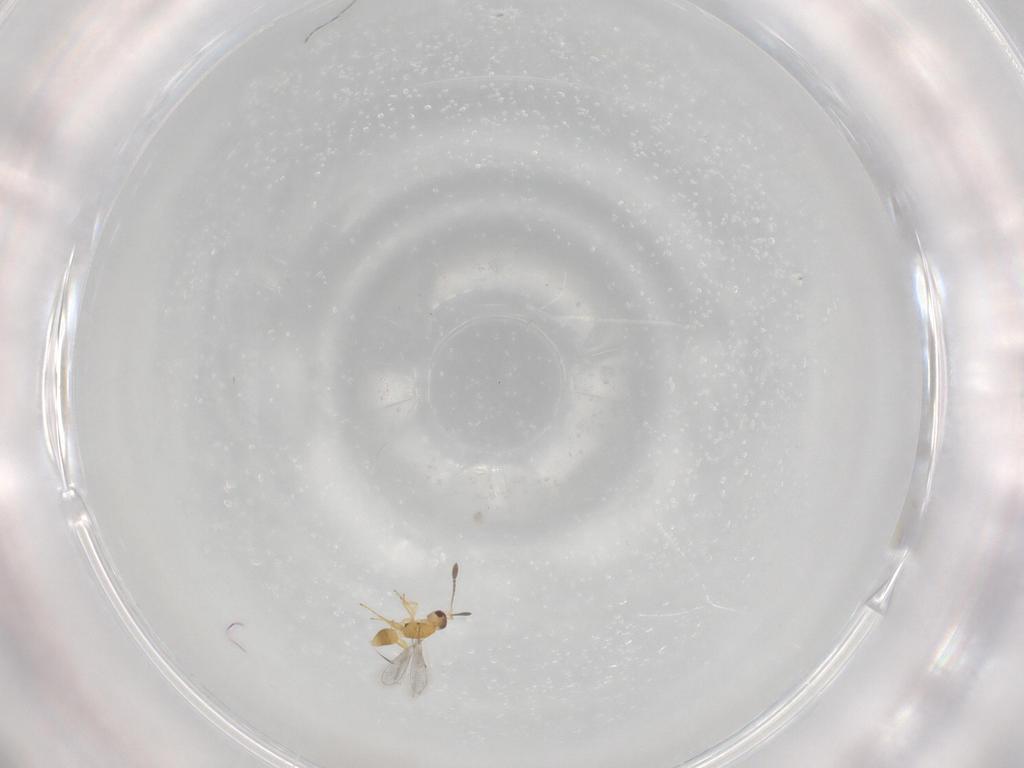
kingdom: Animalia
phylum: Arthropoda
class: Insecta
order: Hymenoptera
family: Mymaridae
